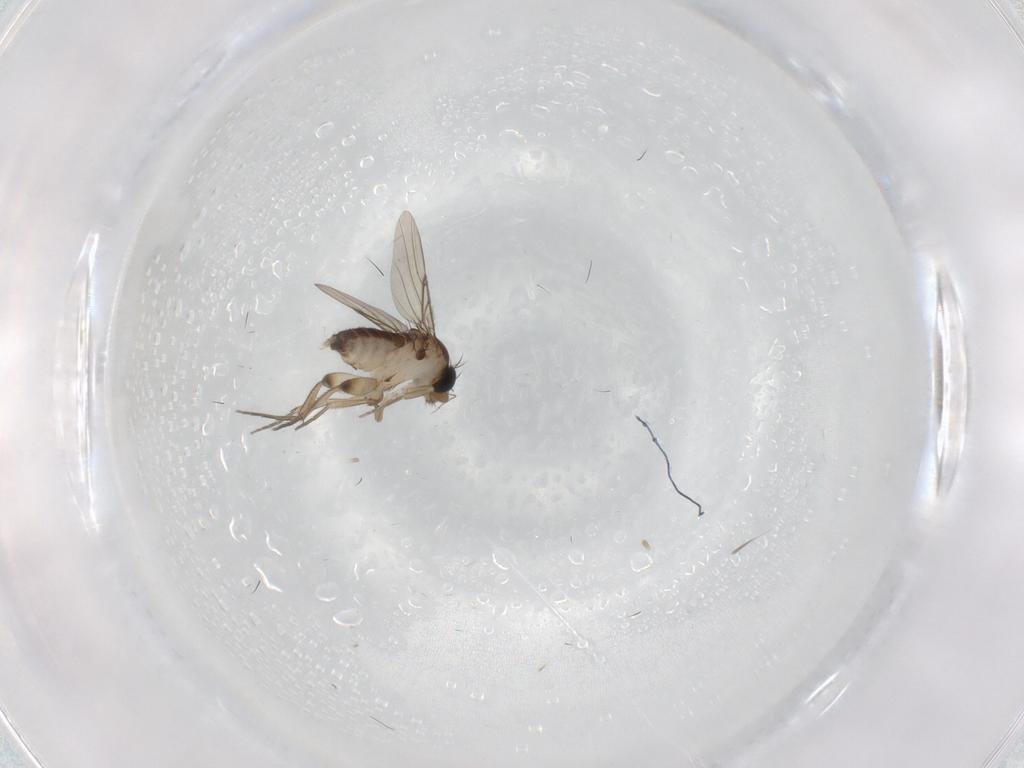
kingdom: Animalia
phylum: Arthropoda
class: Insecta
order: Diptera
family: Phoridae
